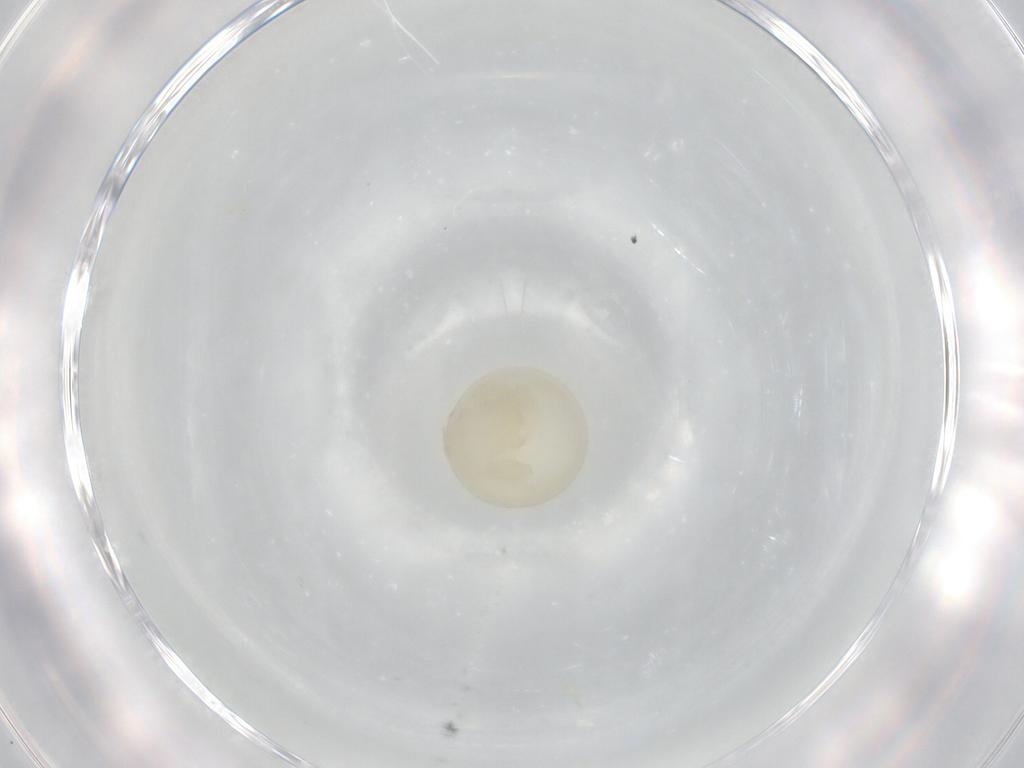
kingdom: Animalia
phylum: Arthropoda
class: Insecta
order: Lepidoptera
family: Erebidae
